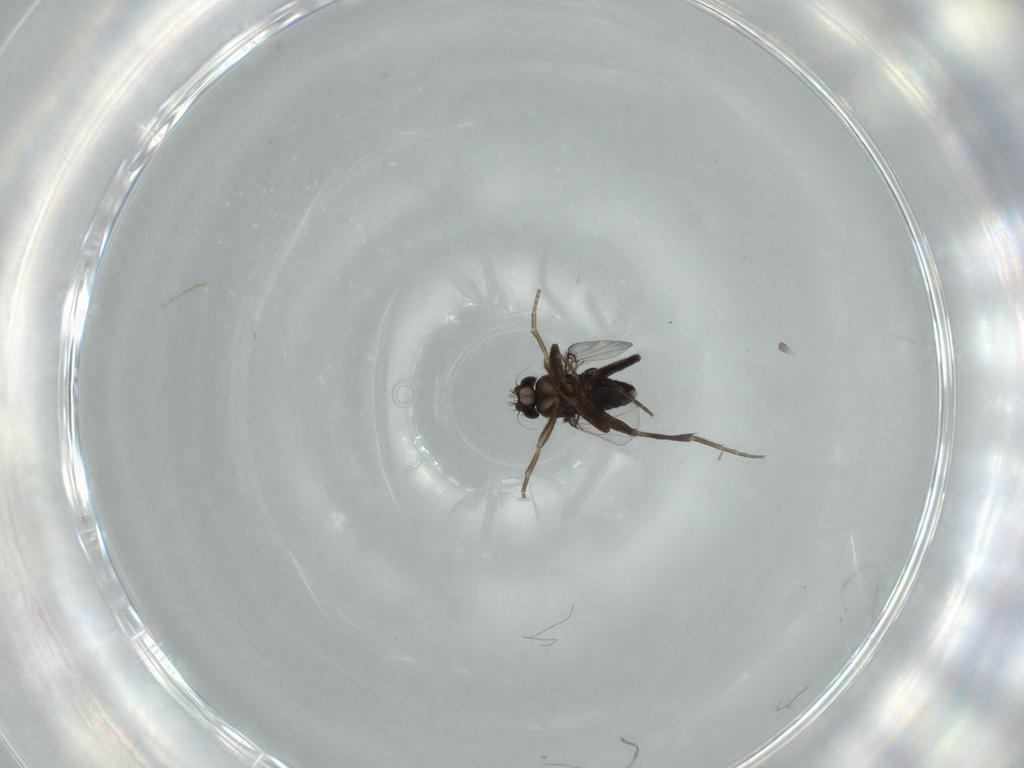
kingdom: Animalia
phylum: Arthropoda
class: Insecta
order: Diptera
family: Phoridae
